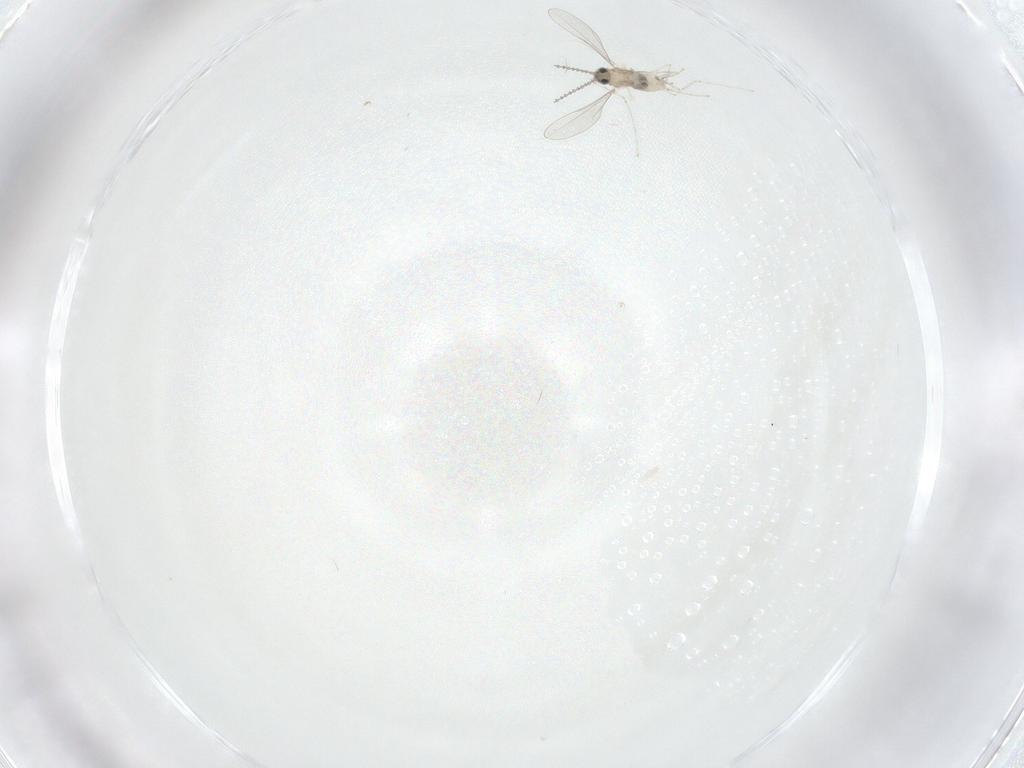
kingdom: Animalia
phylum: Arthropoda
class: Insecta
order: Diptera
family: Cecidomyiidae
